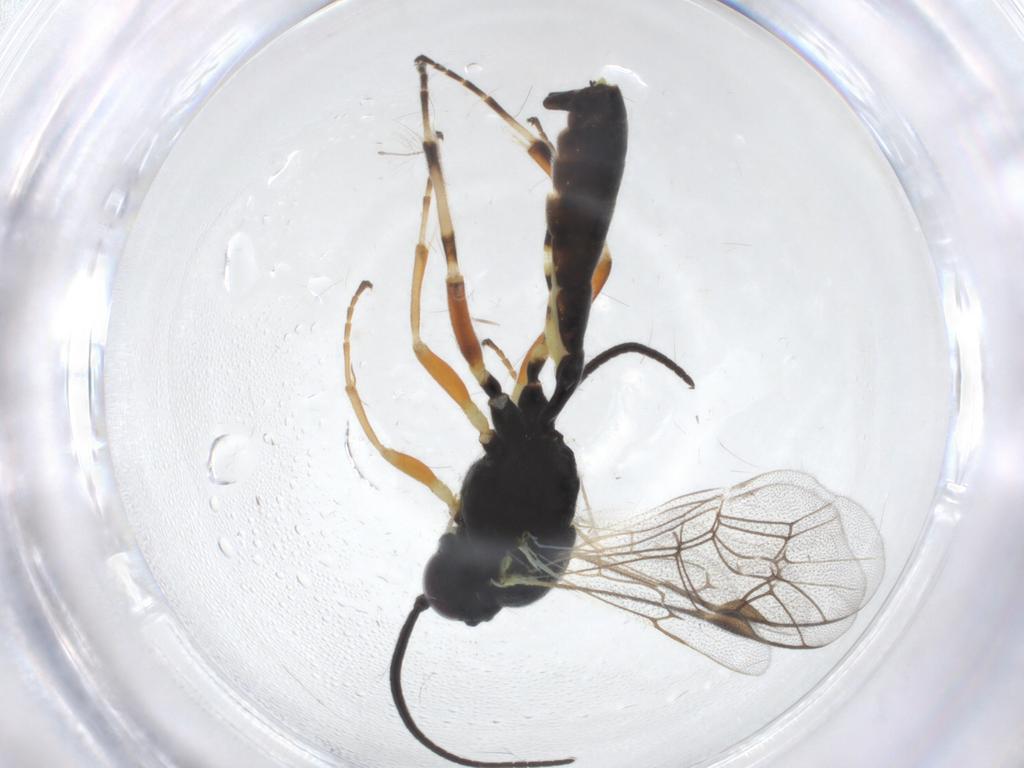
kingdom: Animalia
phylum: Arthropoda
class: Insecta
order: Hymenoptera
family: Ichneumonidae
